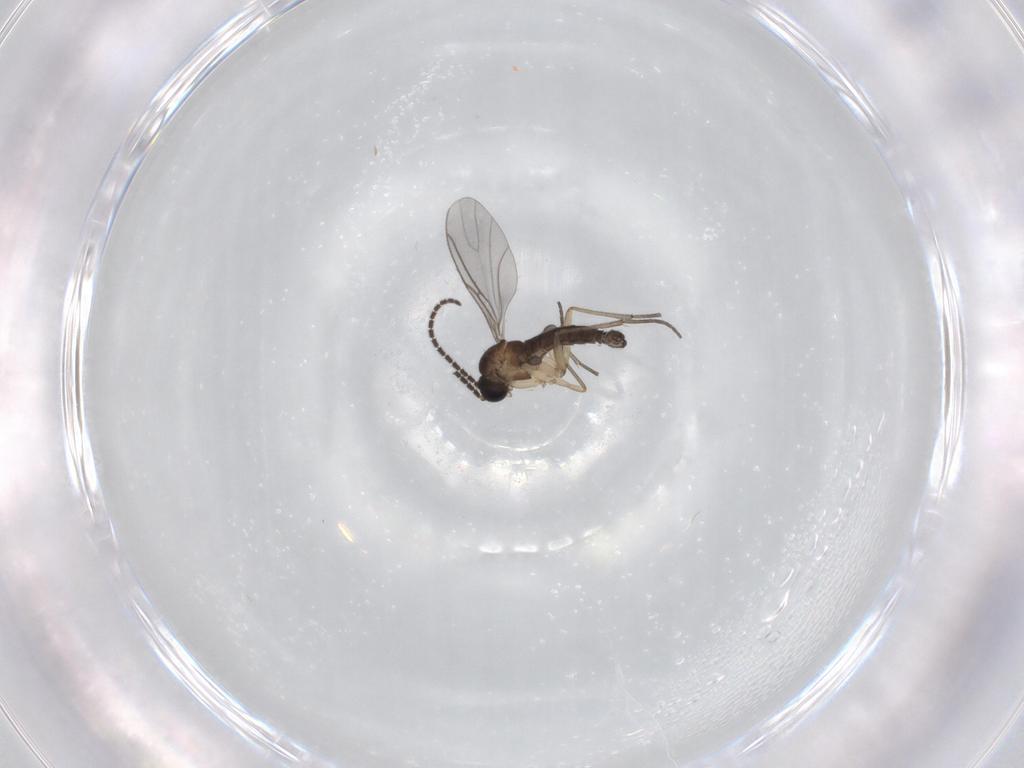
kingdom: Animalia
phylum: Arthropoda
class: Insecta
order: Diptera
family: Sciaridae
